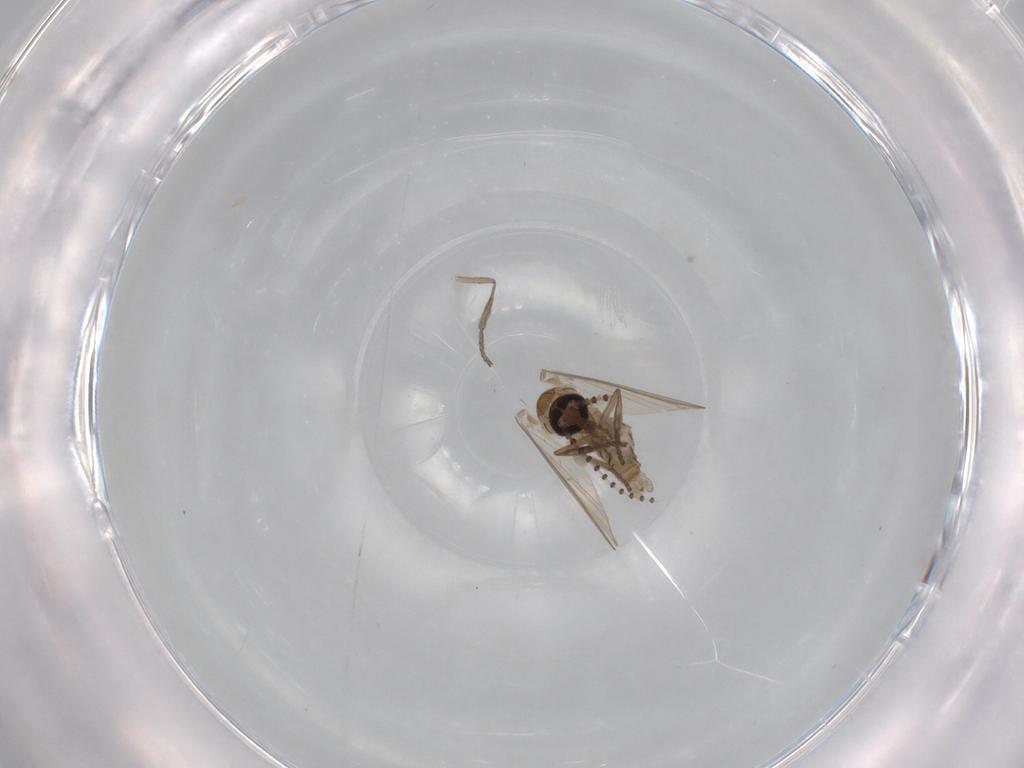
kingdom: Animalia
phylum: Arthropoda
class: Insecta
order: Diptera
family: Psychodidae
